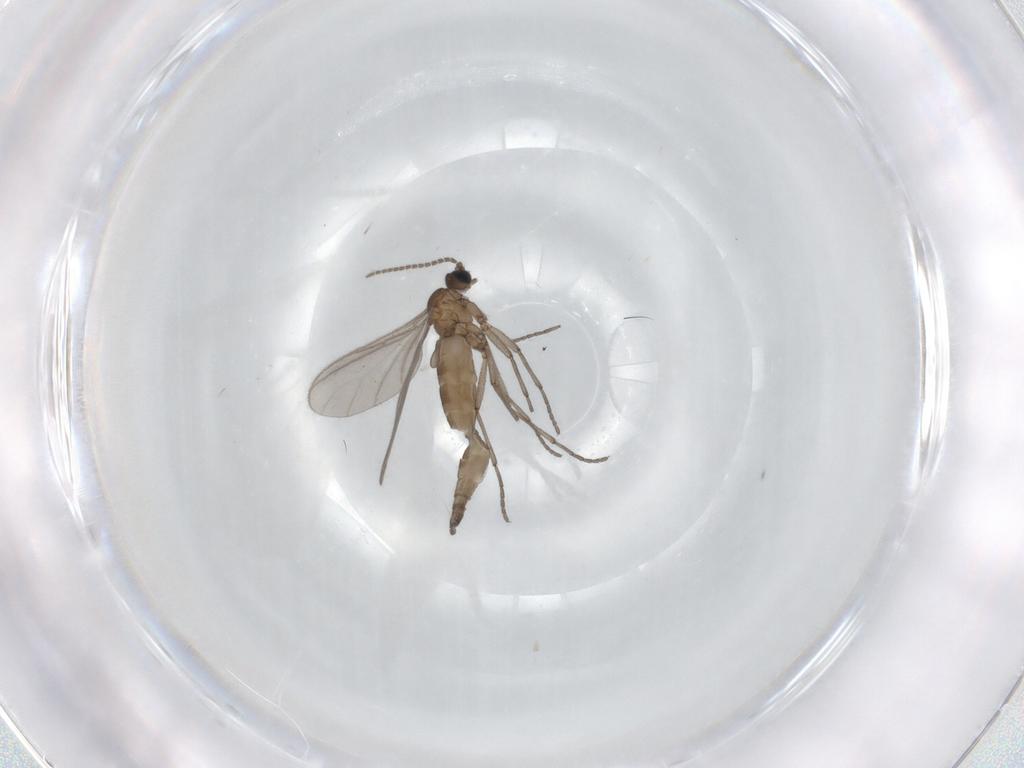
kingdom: Animalia
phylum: Arthropoda
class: Insecta
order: Diptera
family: Sciaridae
